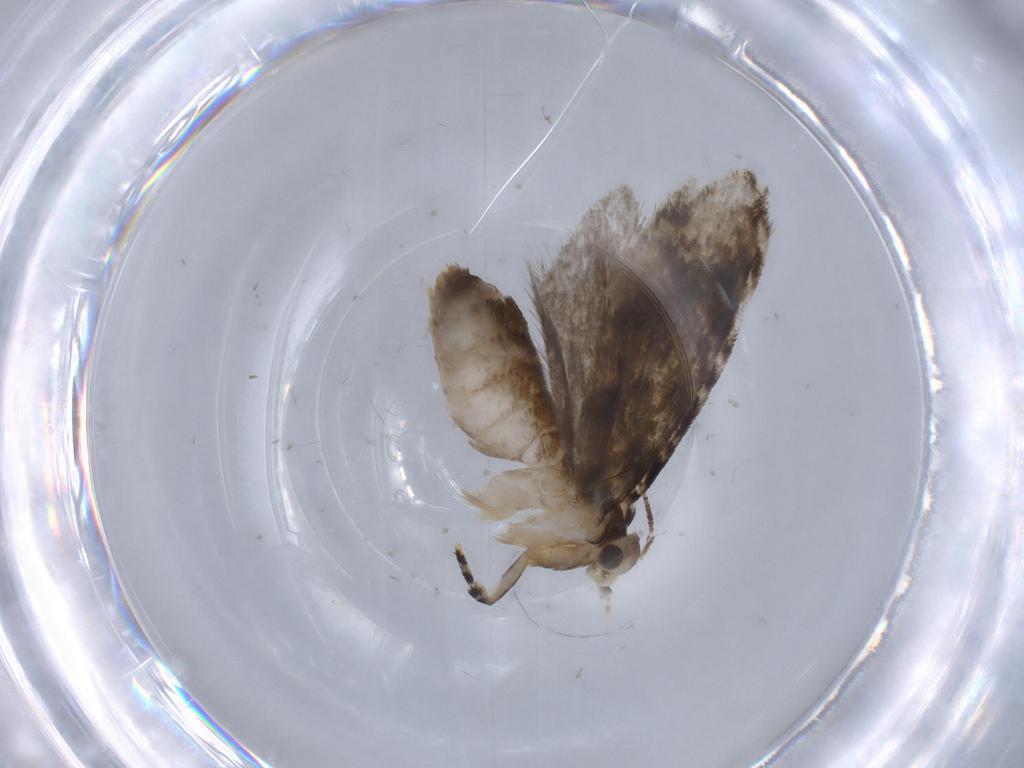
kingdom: Animalia
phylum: Arthropoda
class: Insecta
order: Lepidoptera
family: Tineidae
